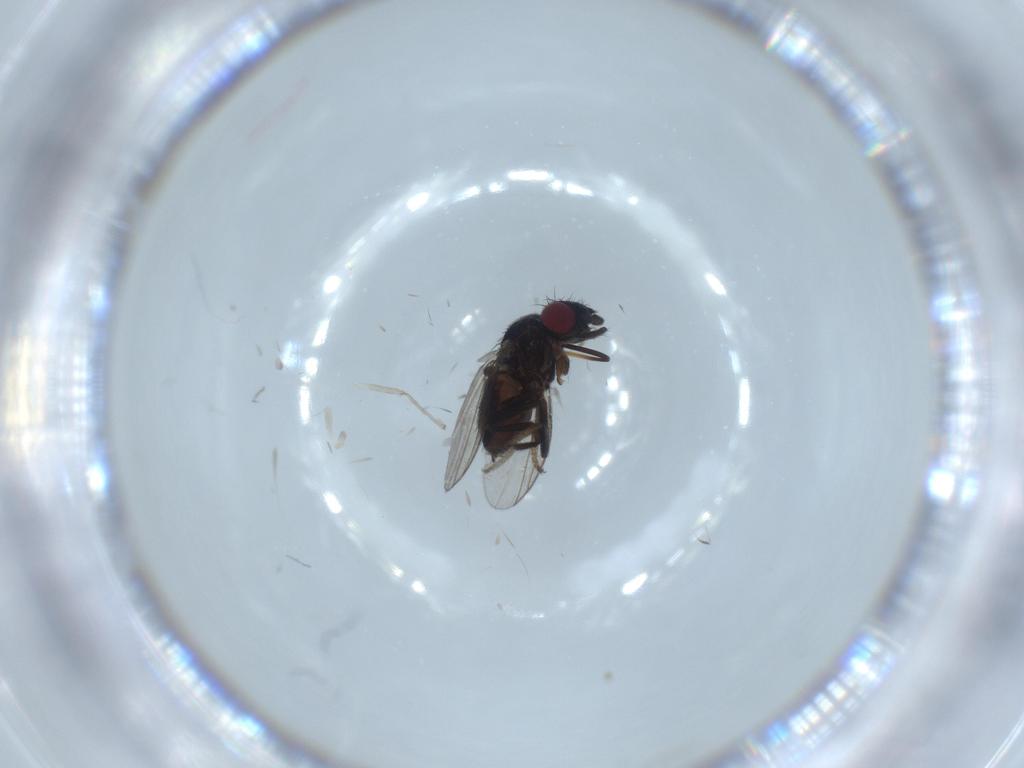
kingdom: Animalia
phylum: Arthropoda
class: Insecta
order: Diptera
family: Milichiidae
